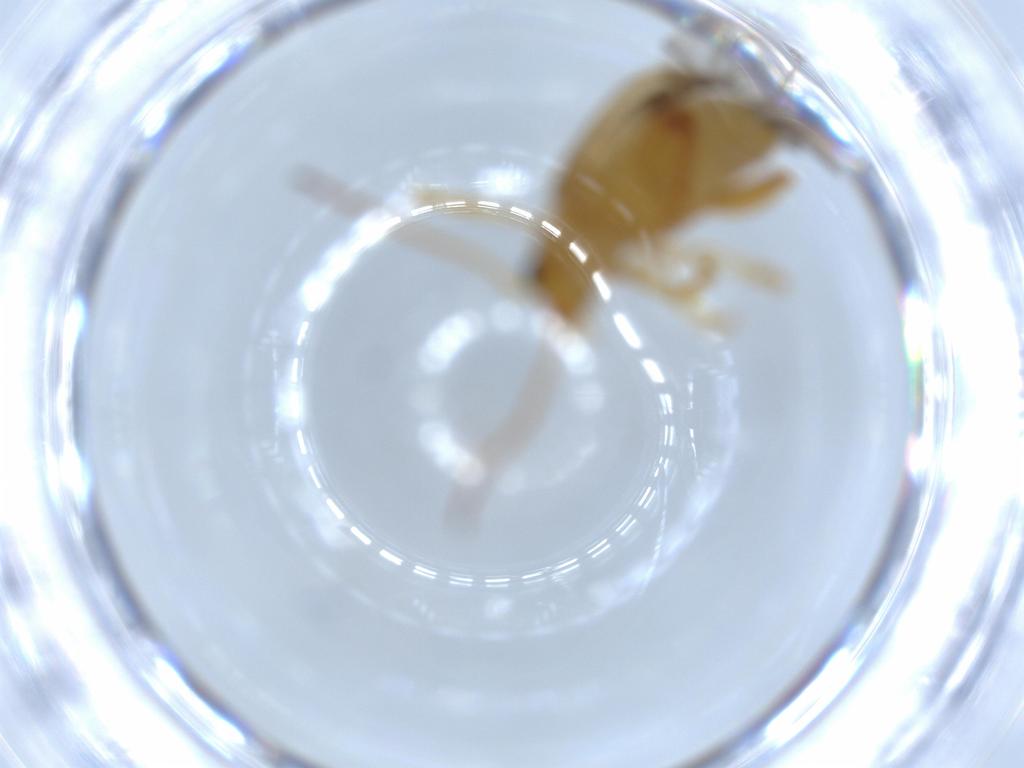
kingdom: Animalia
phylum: Arthropoda
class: Insecta
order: Coleoptera
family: Chrysomelidae
